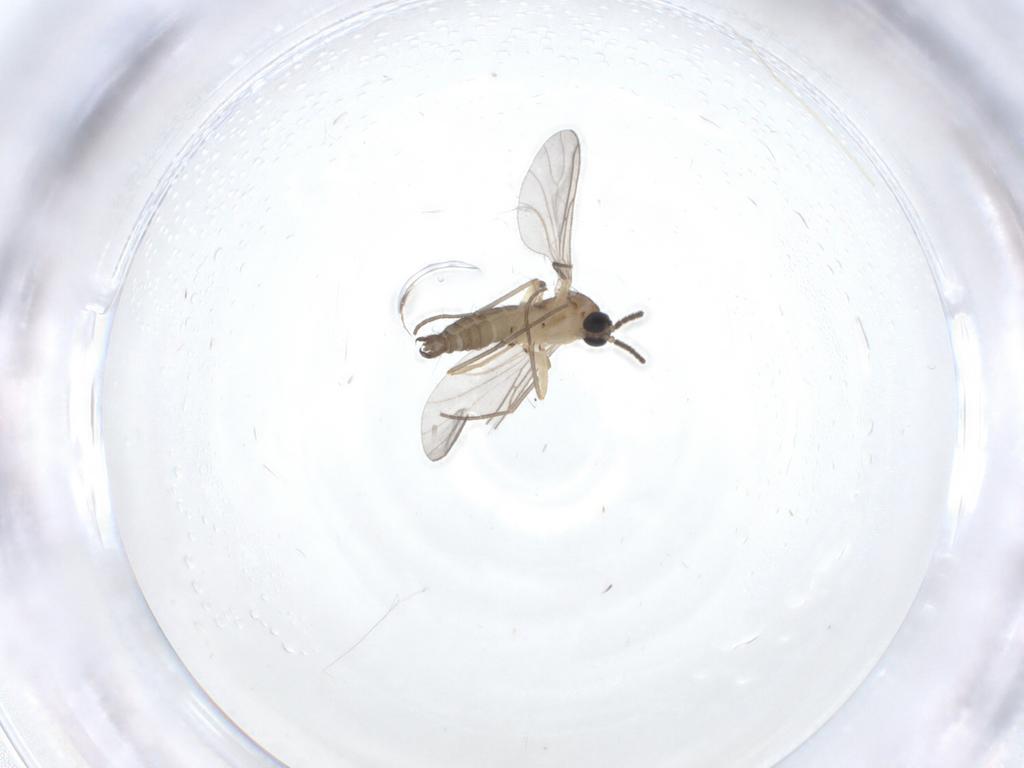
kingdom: Animalia
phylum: Arthropoda
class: Insecta
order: Diptera
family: Sciaridae
